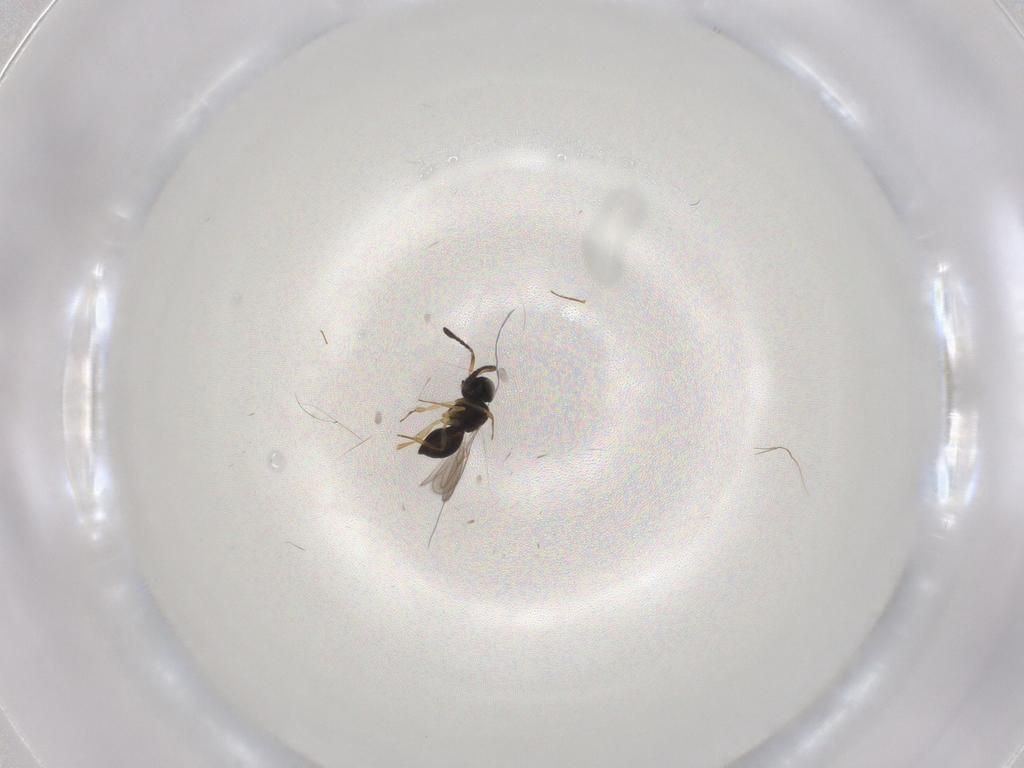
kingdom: Animalia
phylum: Arthropoda
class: Insecta
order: Hymenoptera
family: Scelionidae
